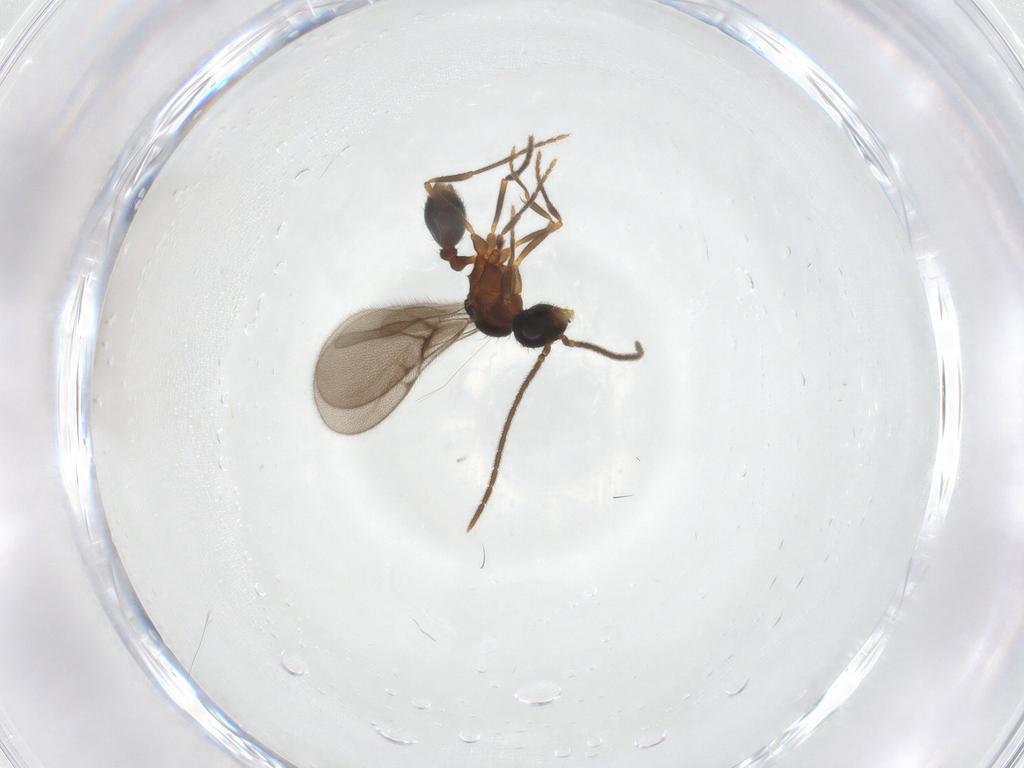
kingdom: Animalia
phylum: Arthropoda
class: Insecta
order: Hymenoptera
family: Formicidae
